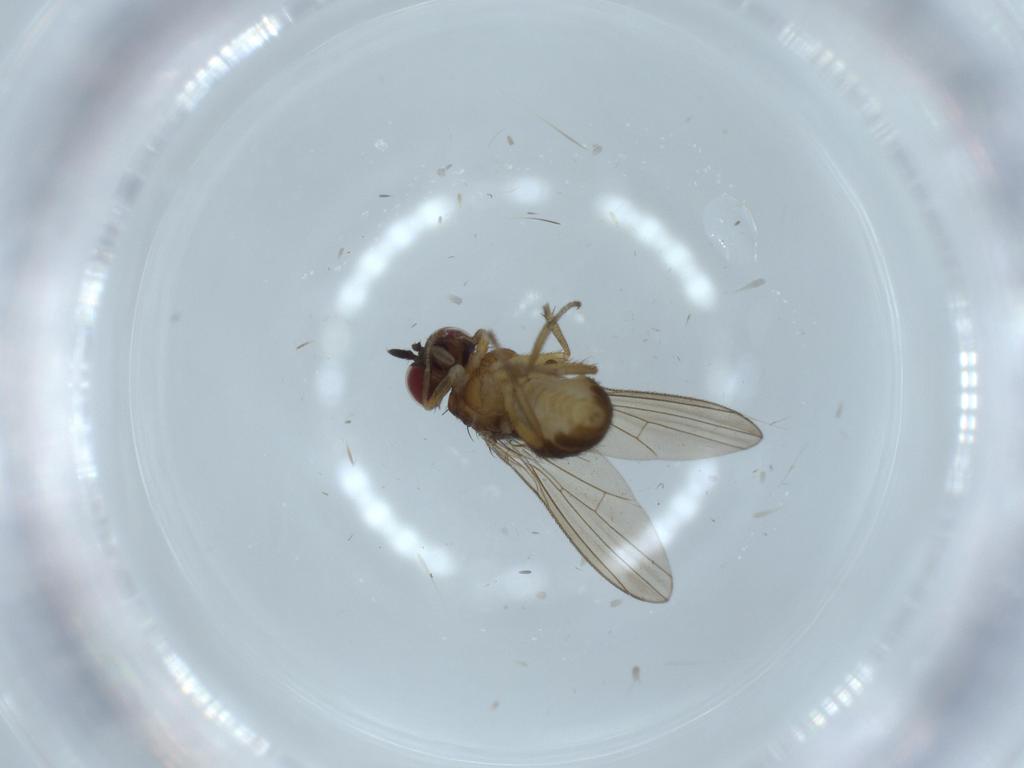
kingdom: Animalia
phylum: Arthropoda
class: Insecta
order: Diptera
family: Lauxaniidae
